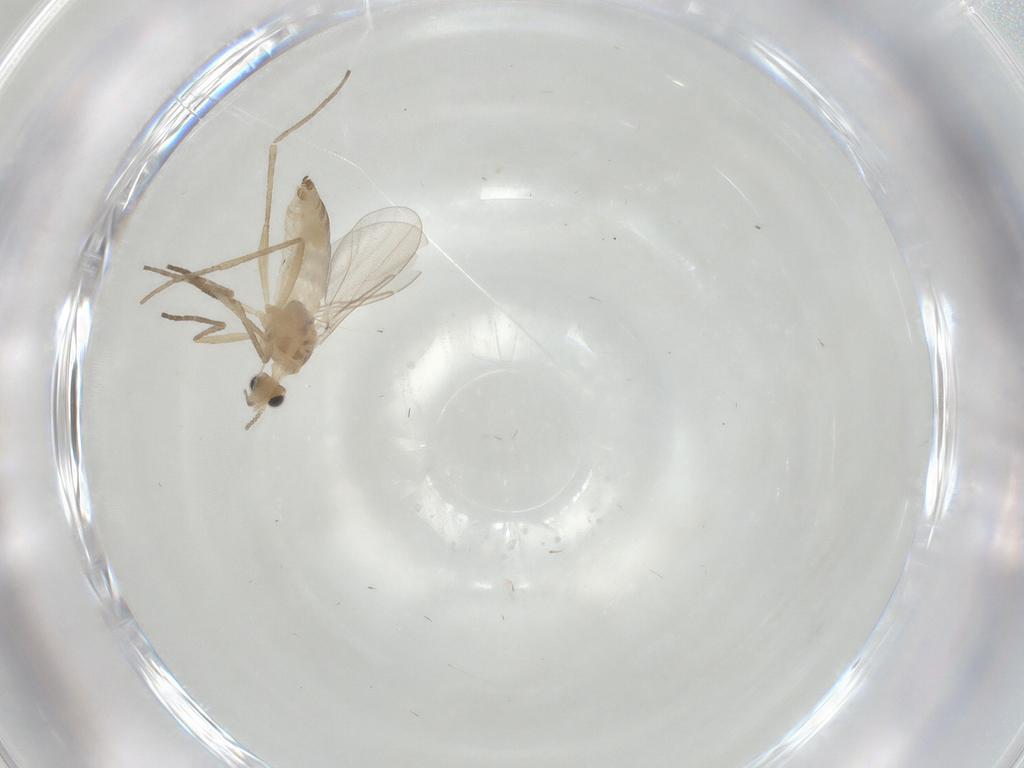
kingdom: Animalia
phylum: Arthropoda
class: Insecta
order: Diptera
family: Cecidomyiidae
